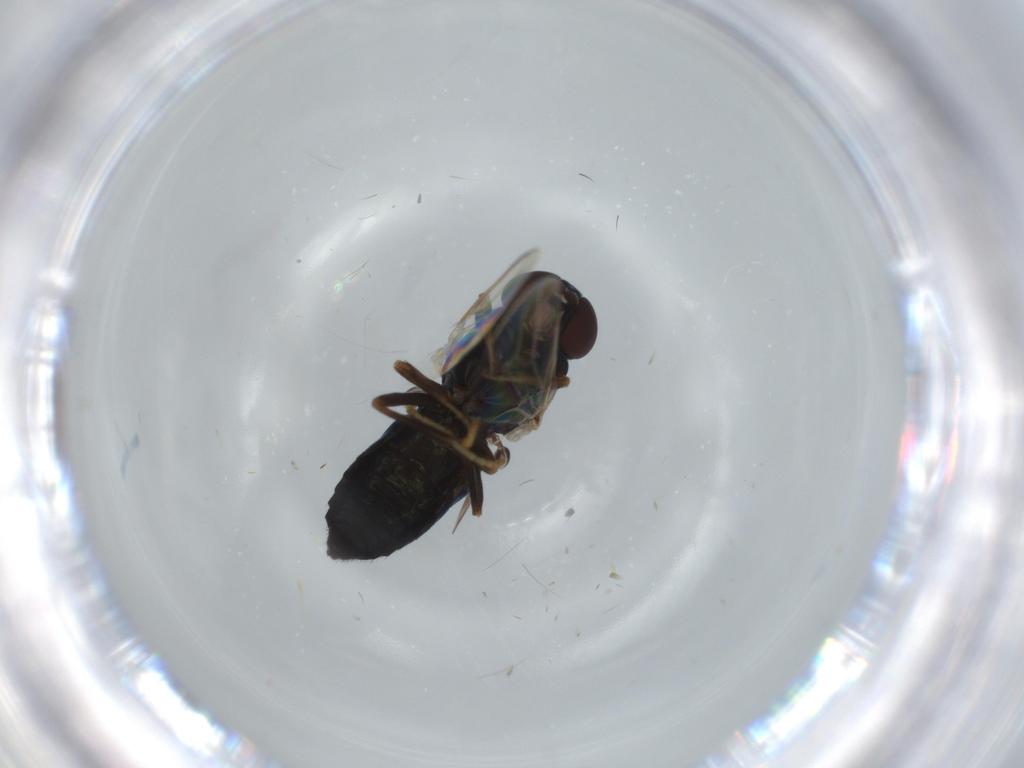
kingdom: Animalia
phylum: Arthropoda
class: Insecta
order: Diptera
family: Scenopinidae
